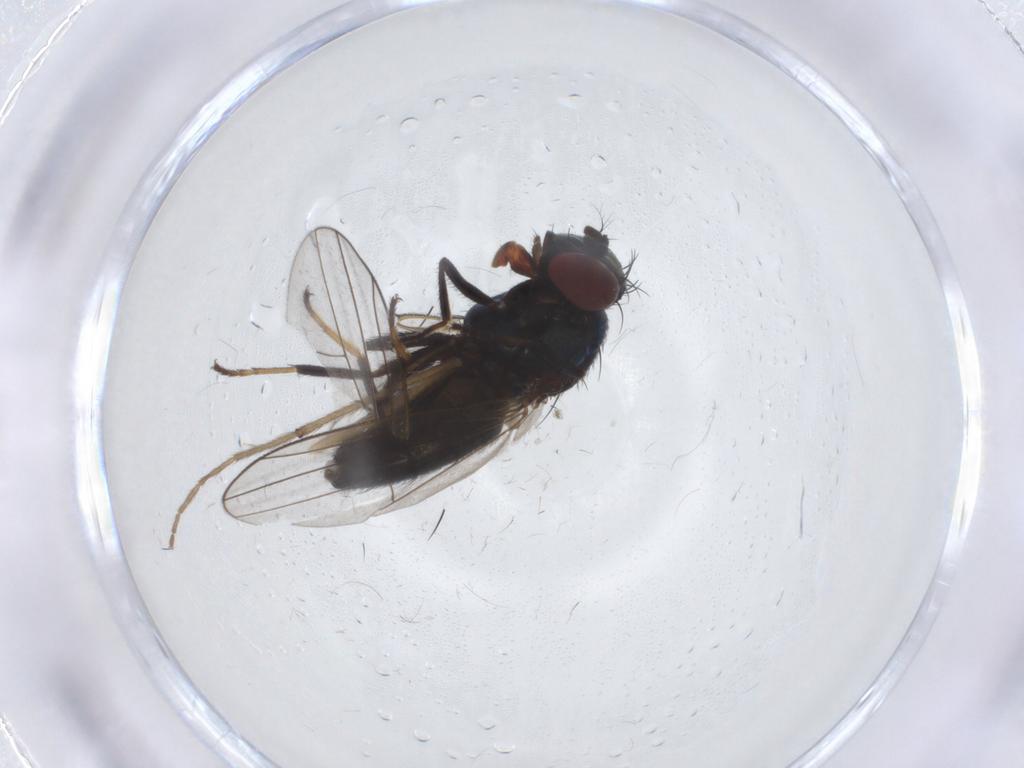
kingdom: Animalia
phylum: Arthropoda
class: Insecta
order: Diptera
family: Chironomidae
